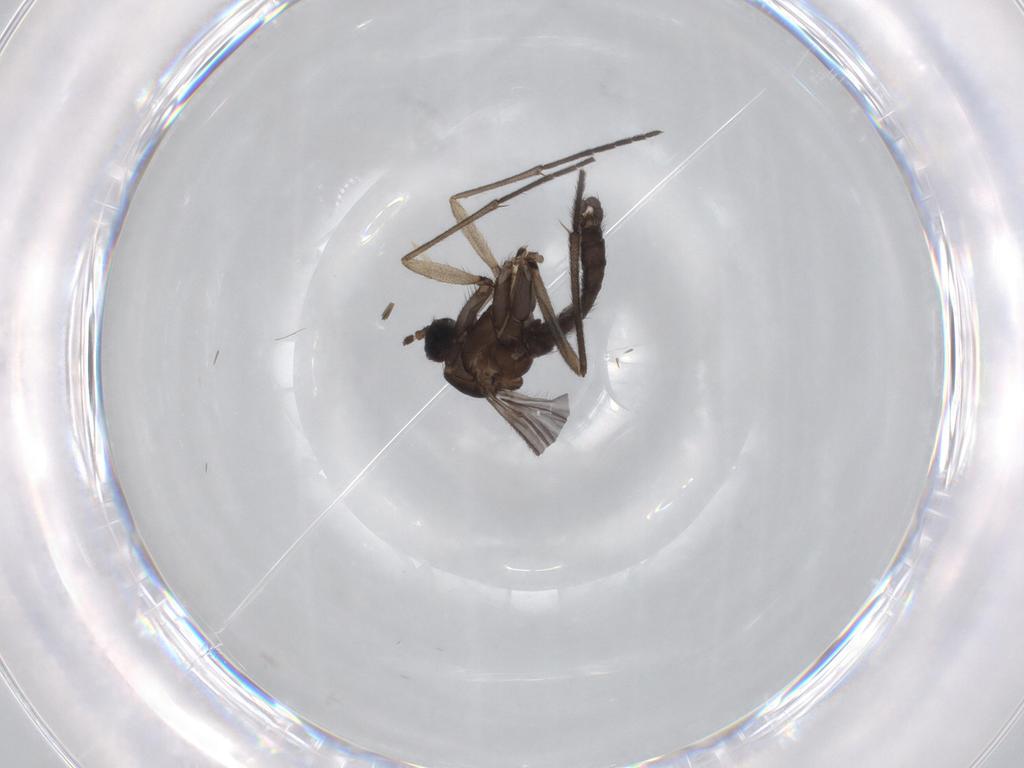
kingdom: Animalia
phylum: Arthropoda
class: Insecta
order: Diptera
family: Sciaridae
